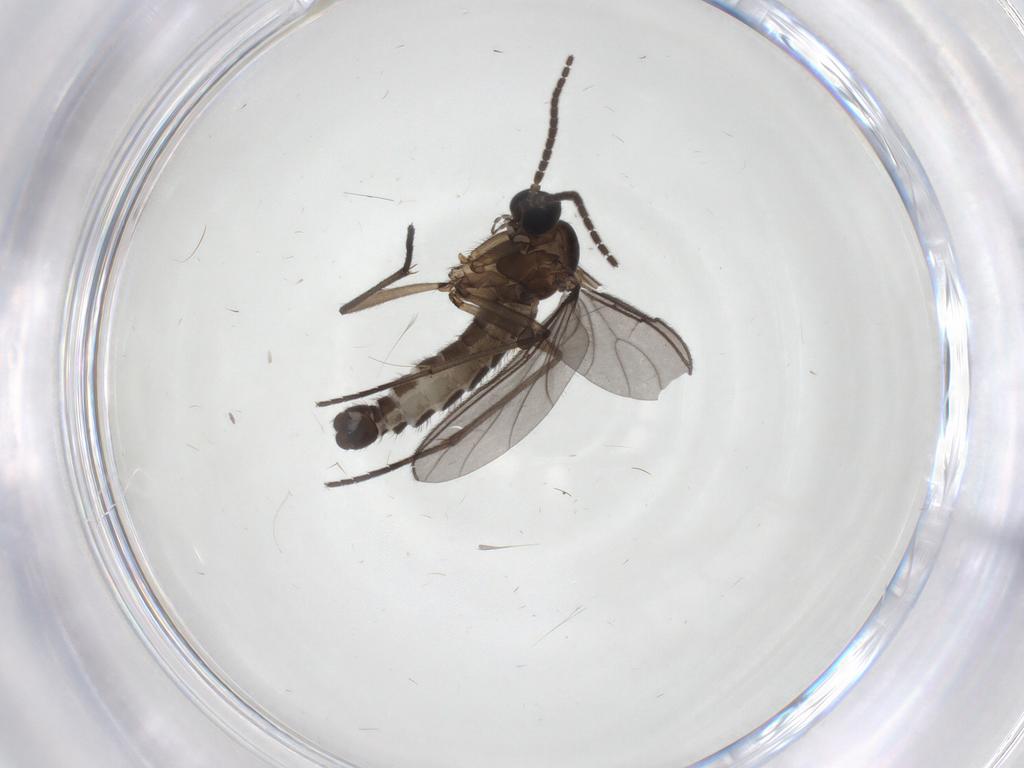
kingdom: Animalia
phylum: Arthropoda
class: Insecta
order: Diptera
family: Sciaridae
